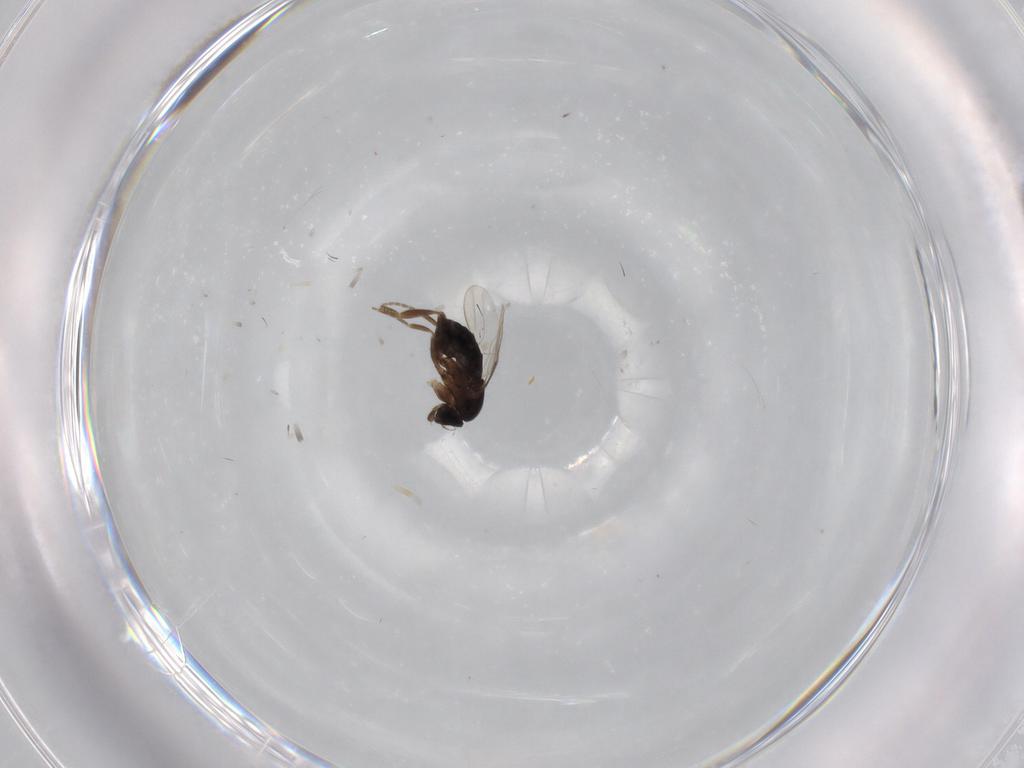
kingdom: Animalia
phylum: Arthropoda
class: Insecta
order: Diptera
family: Phoridae
